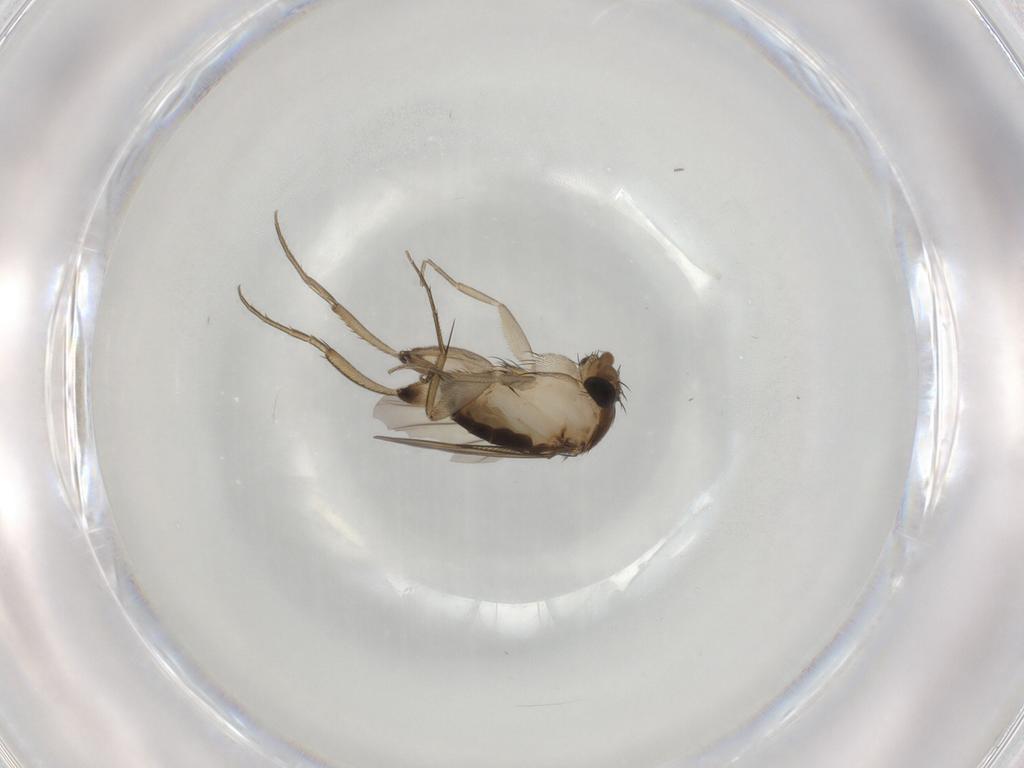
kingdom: Animalia
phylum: Arthropoda
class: Insecta
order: Diptera
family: Phoridae
